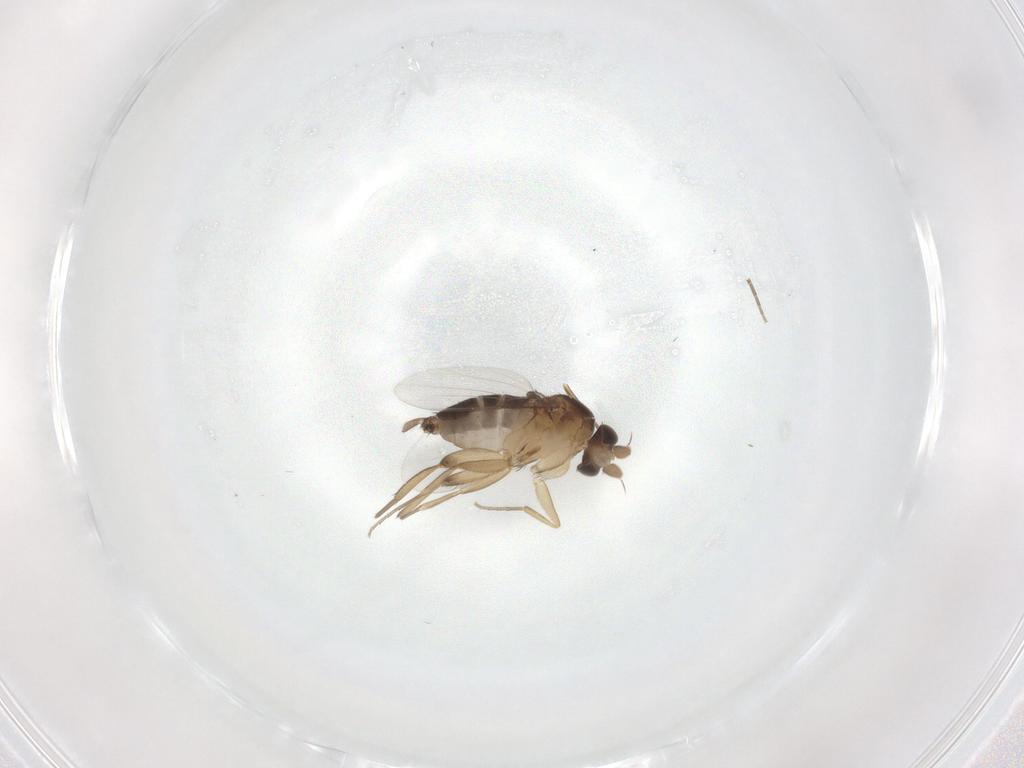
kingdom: Animalia
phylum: Arthropoda
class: Insecta
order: Diptera
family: Phoridae
